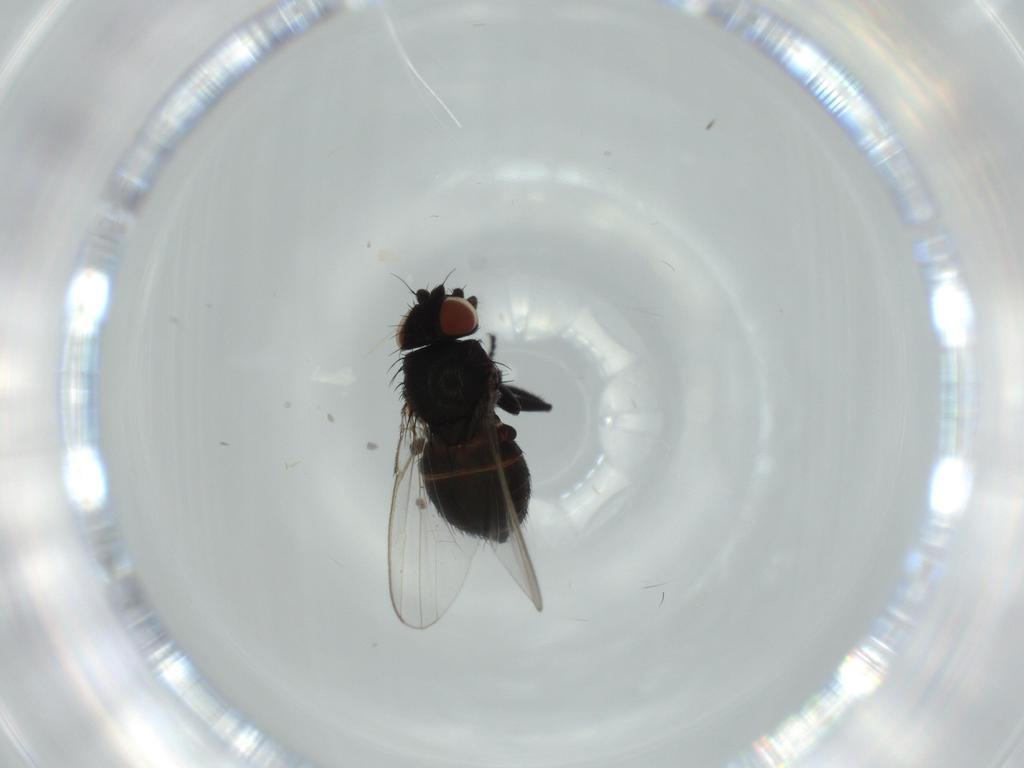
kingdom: Animalia
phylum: Arthropoda
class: Insecta
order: Diptera
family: Milichiidae
